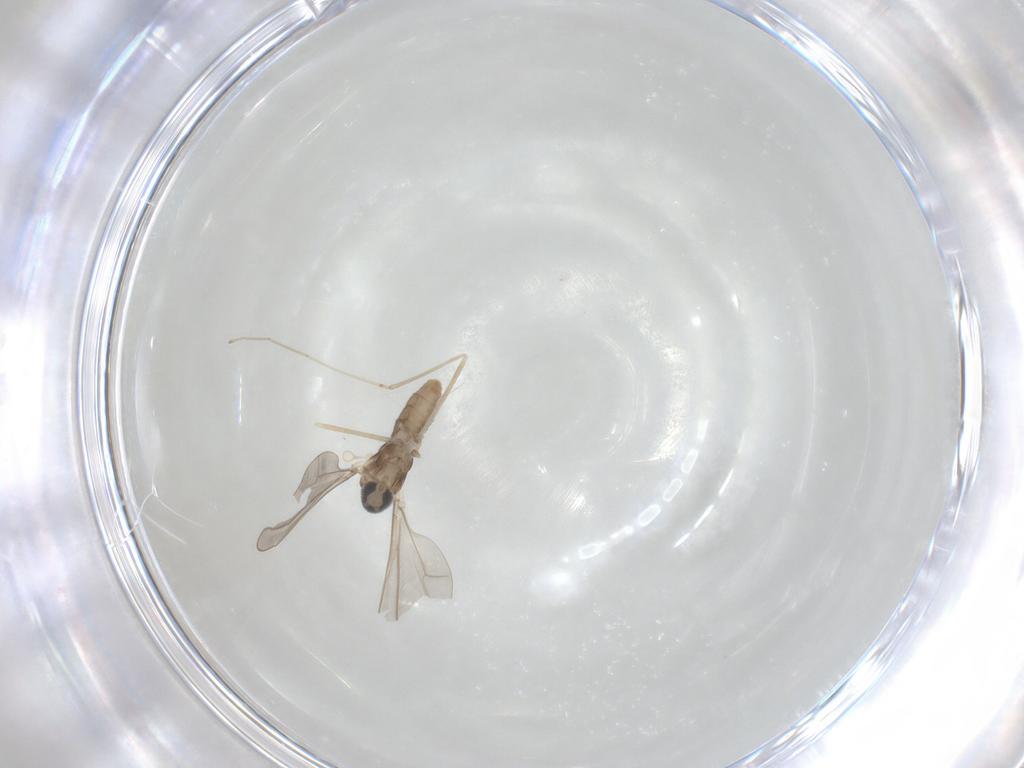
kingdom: Animalia
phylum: Arthropoda
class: Insecta
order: Diptera
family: Cecidomyiidae
